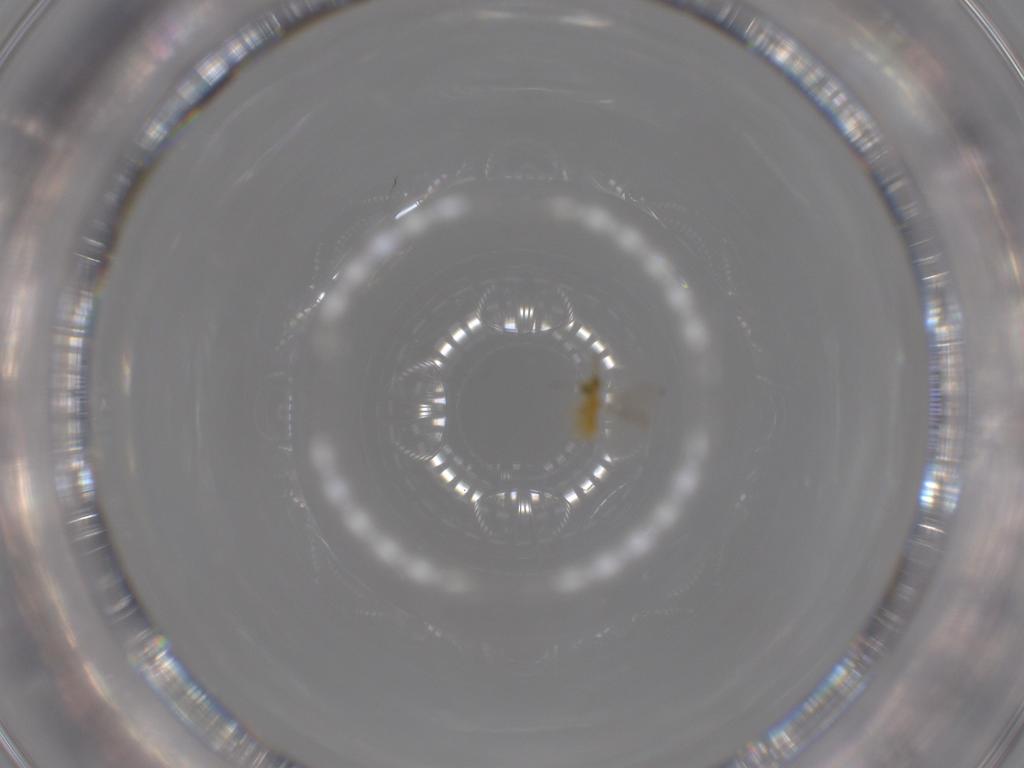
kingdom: Animalia
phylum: Arthropoda
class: Insecta
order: Hymenoptera
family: Aphelinidae
